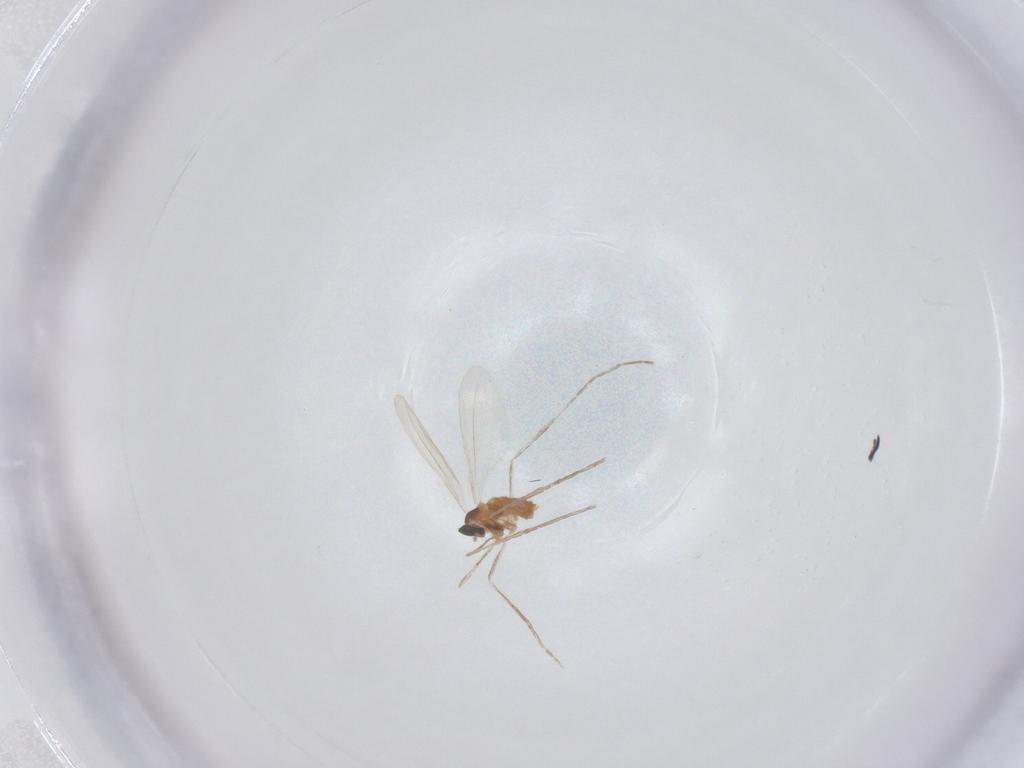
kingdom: Animalia
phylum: Arthropoda
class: Insecta
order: Diptera
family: Cecidomyiidae
